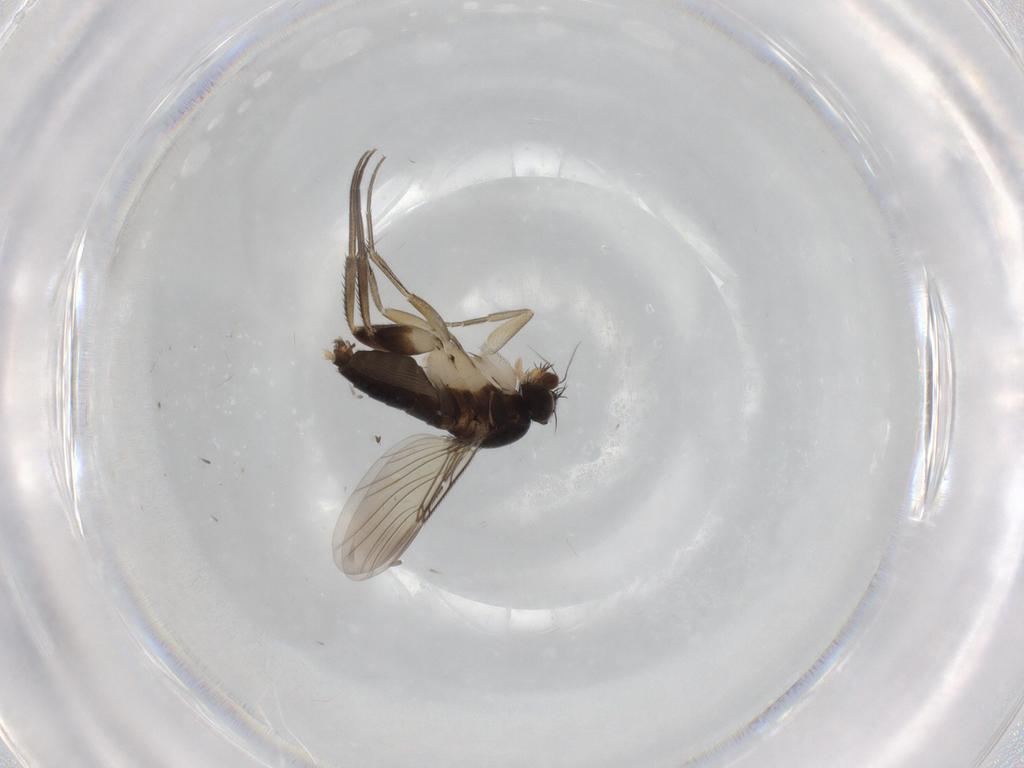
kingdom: Animalia
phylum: Arthropoda
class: Insecta
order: Diptera
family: Phoridae
